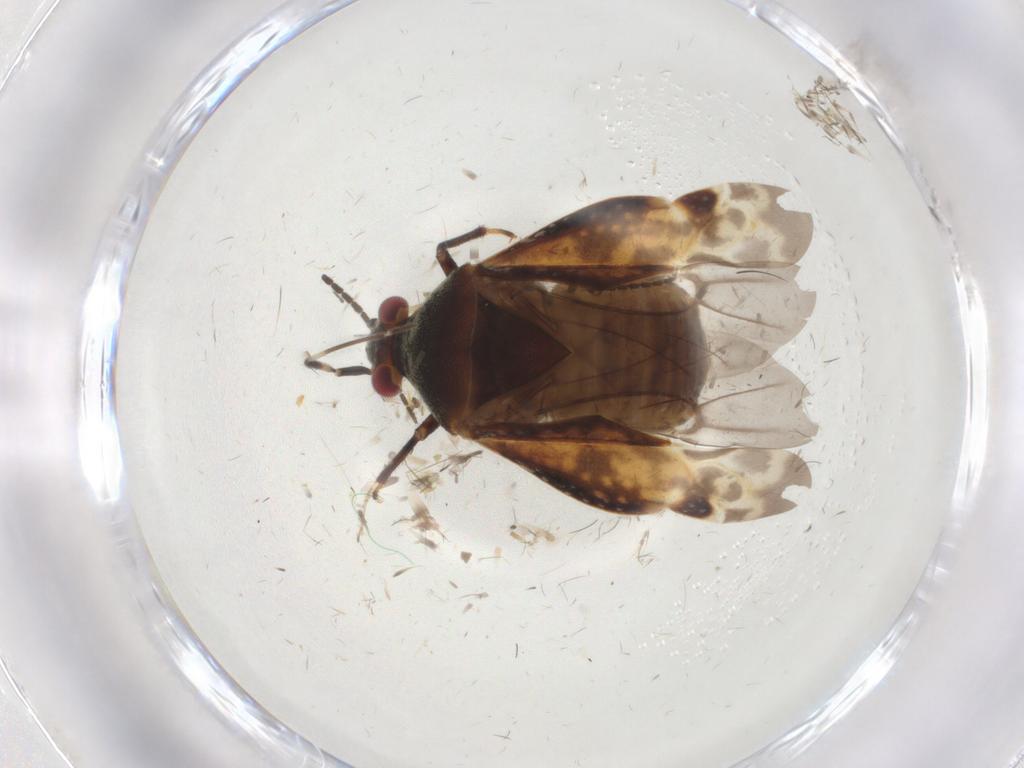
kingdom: Animalia
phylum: Arthropoda
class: Insecta
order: Hemiptera
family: Miridae
